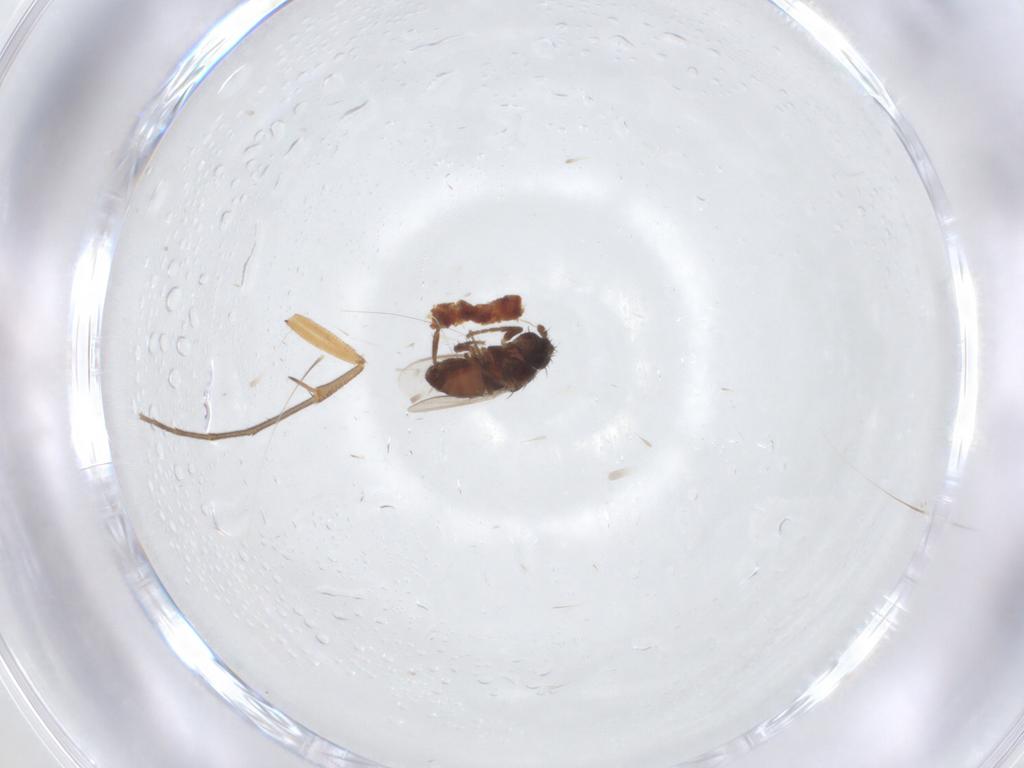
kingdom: Animalia
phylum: Arthropoda
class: Insecta
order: Diptera
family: Mycetophilidae
